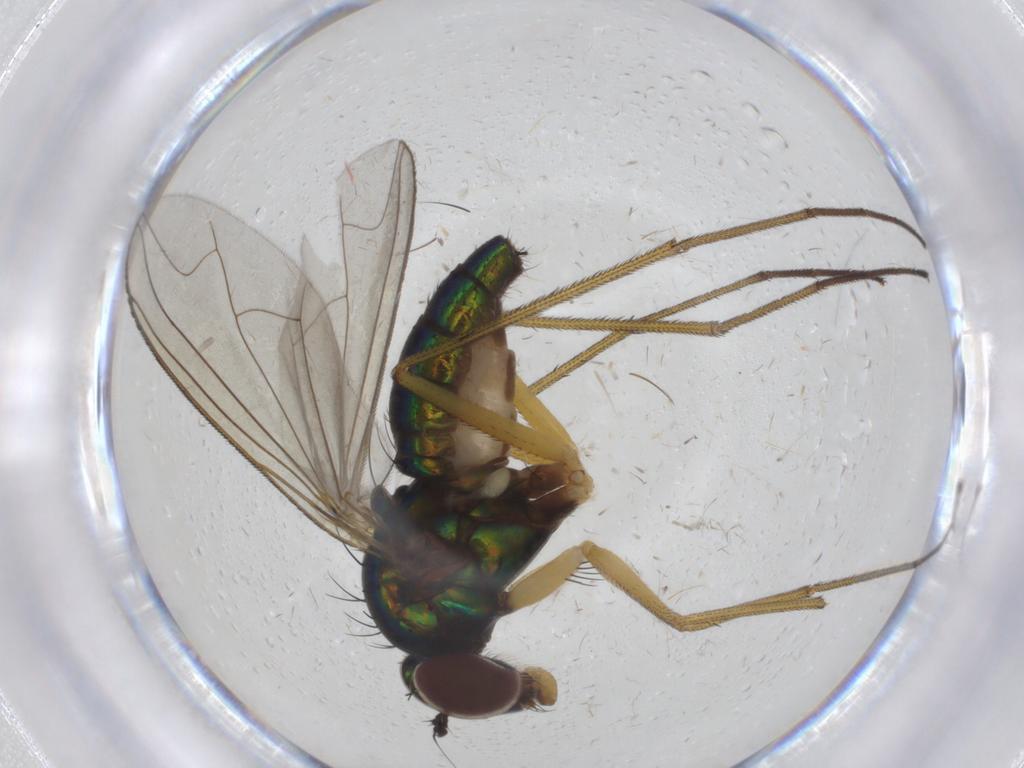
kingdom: Animalia
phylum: Arthropoda
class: Insecta
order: Diptera
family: Dolichopodidae
